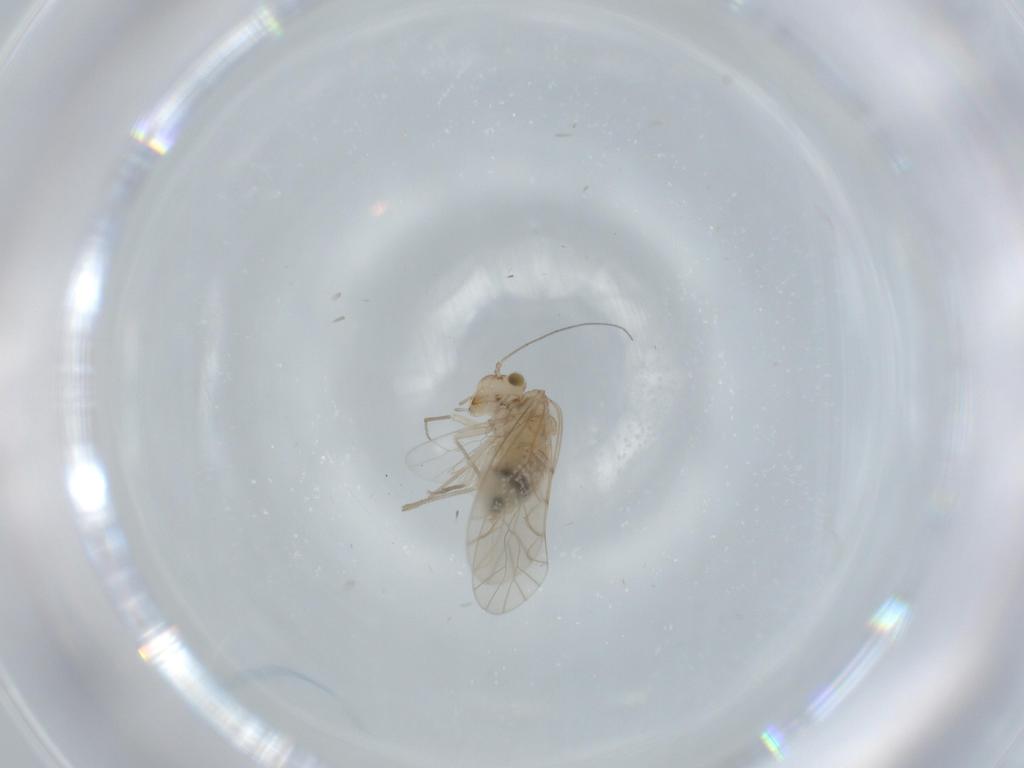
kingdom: Animalia
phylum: Arthropoda
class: Insecta
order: Psocodea
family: Lachesillidae
